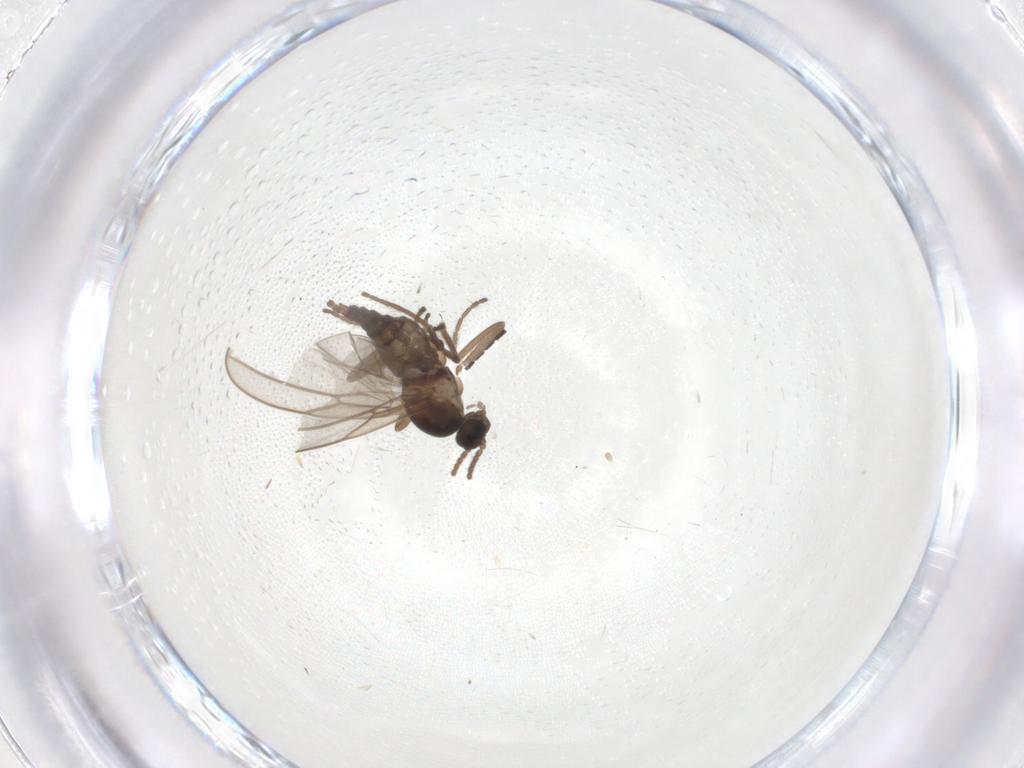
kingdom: Animalia
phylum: Arthropoda
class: Insecta
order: Diptera
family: Cecidomyiidae
